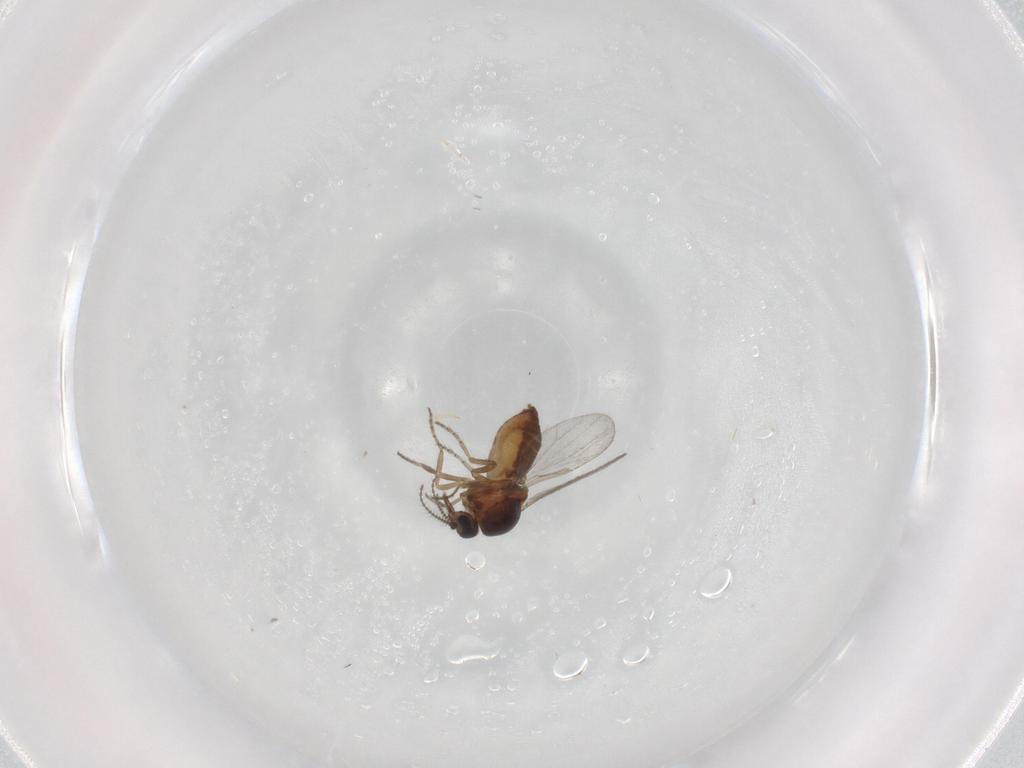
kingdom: Animalia
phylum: Arthropoda
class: Insecta
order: Diptera
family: Ceratopogonidae
